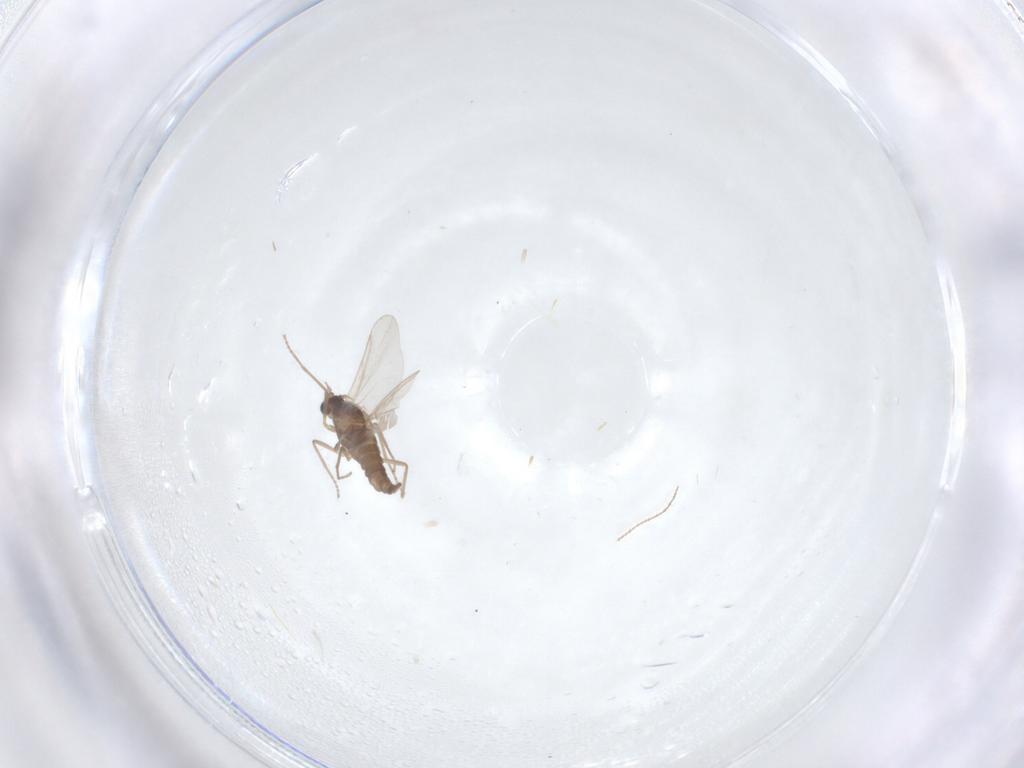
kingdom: Animalia
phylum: Arthropoda
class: Insecta
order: Diptera
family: Cecidomyiidae
